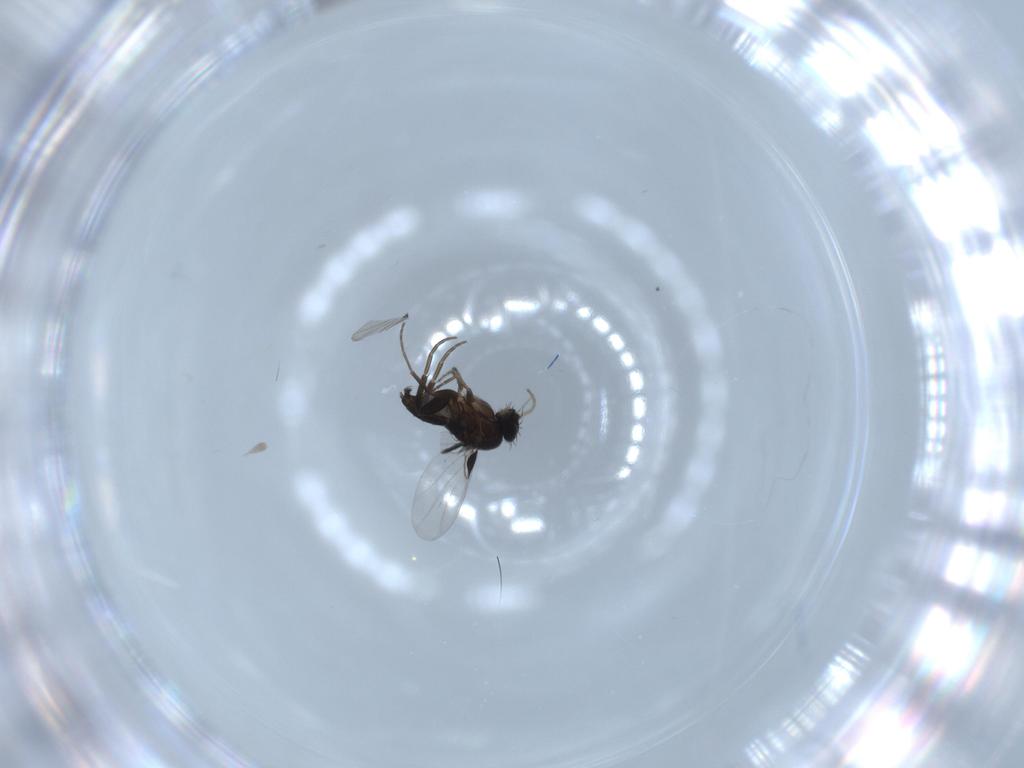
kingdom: Animalia
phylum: Arthropoda
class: Insecta
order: Diptera
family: Phoridae
